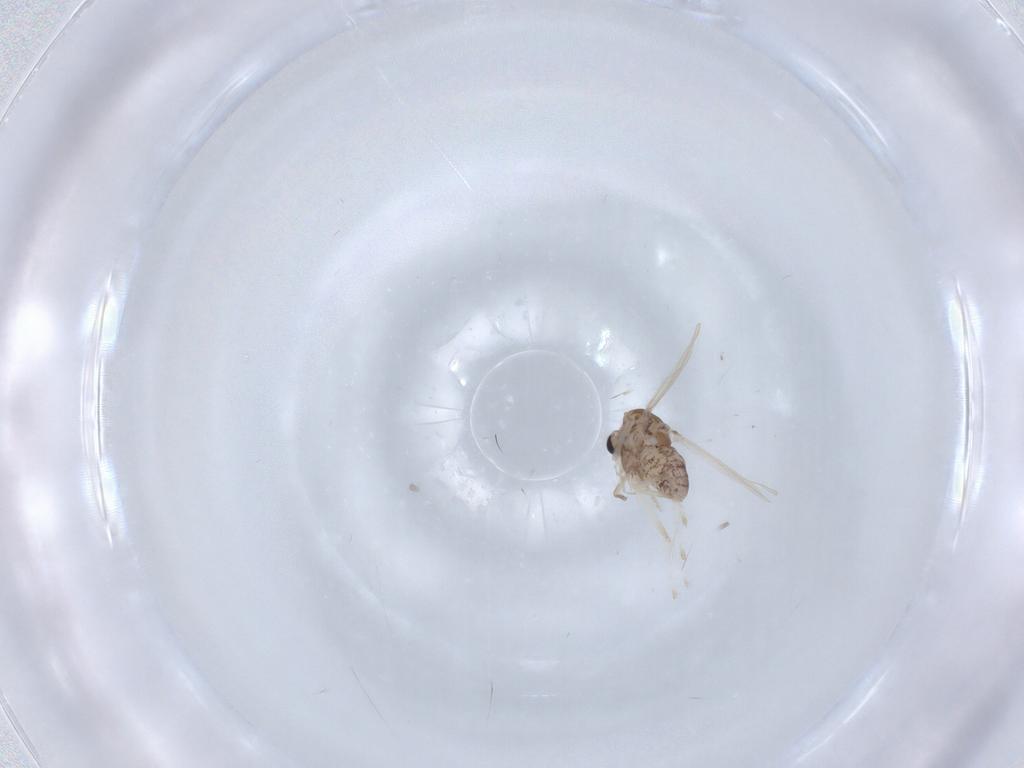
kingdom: Animalia
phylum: Arthropoda
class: Insecta
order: Diptera
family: Chironomidae
